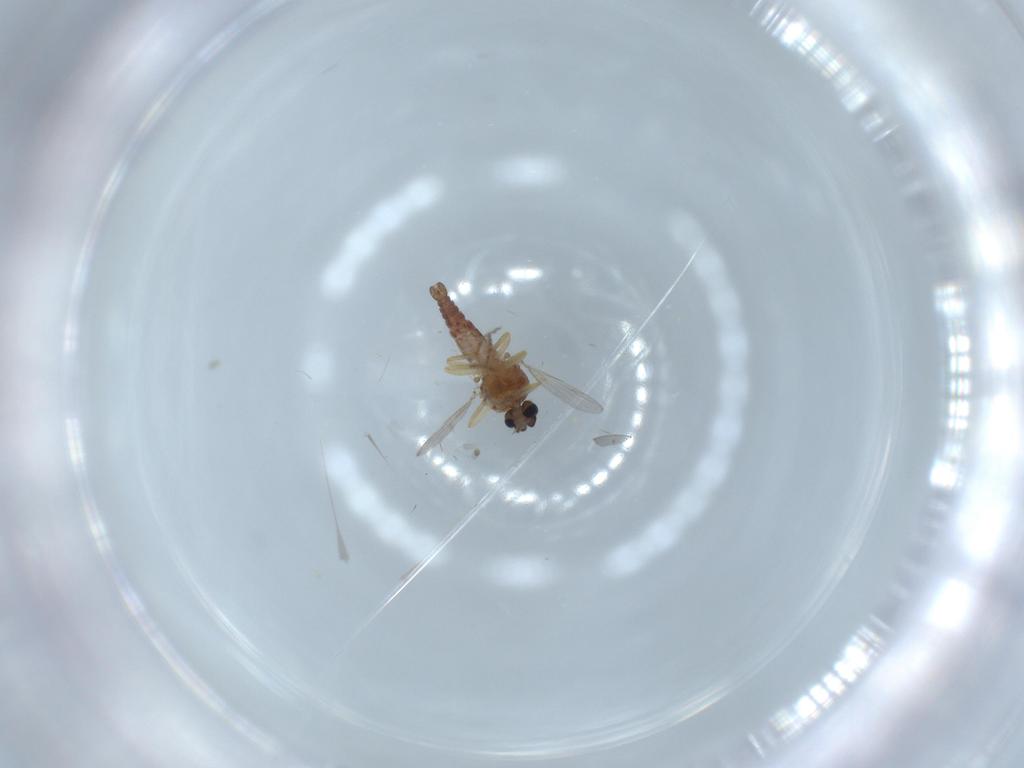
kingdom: Animalia
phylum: Arthropoda
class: Insecta
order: Diptera
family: Ceratopogonidae
